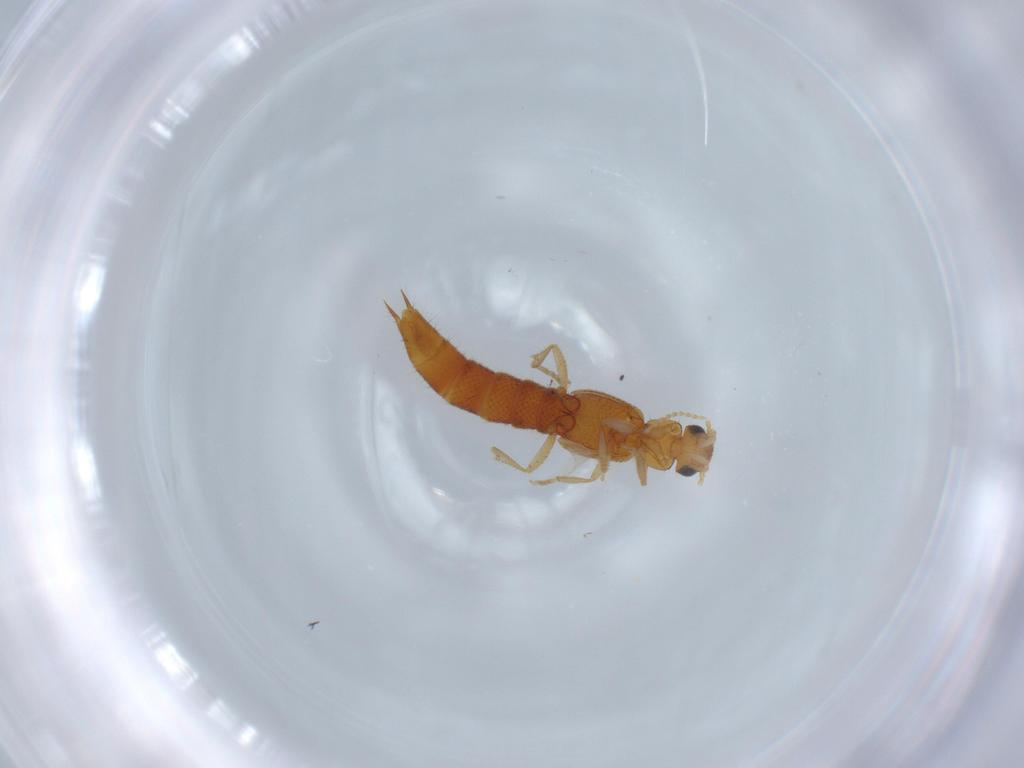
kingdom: Animalia
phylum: Arthropoda
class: Insecta
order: Coleoptera
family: Staphylinidae
